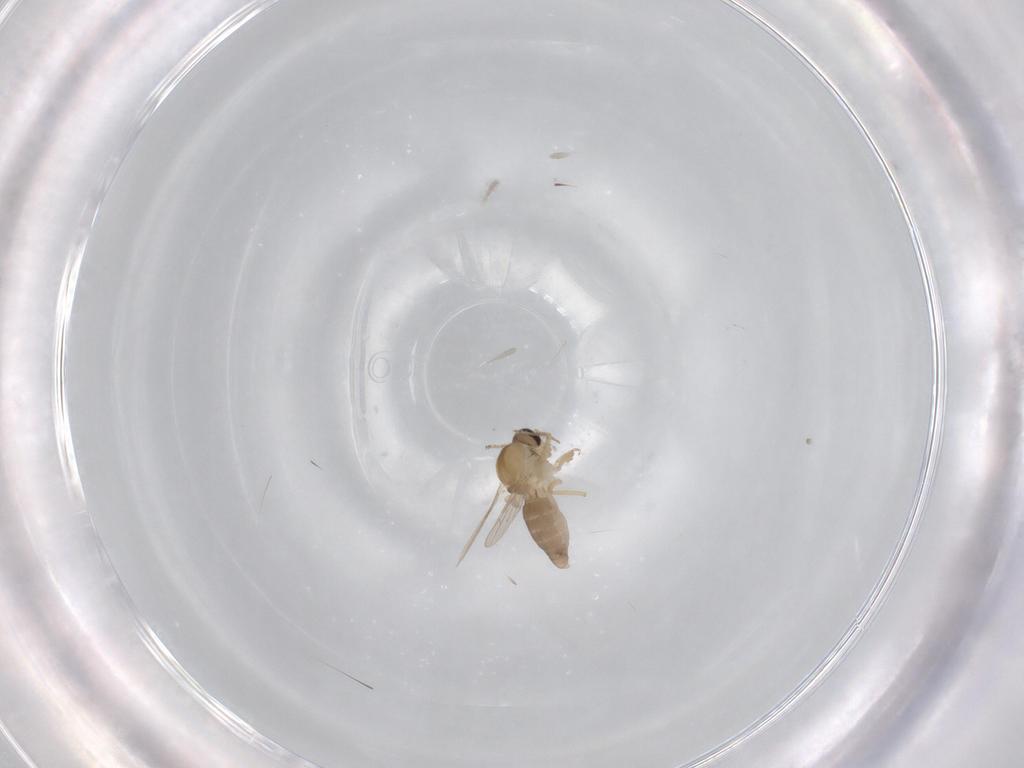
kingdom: Animalia
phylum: Arthropoda
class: Insecta
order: Diptera
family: Ceratopogonidae
